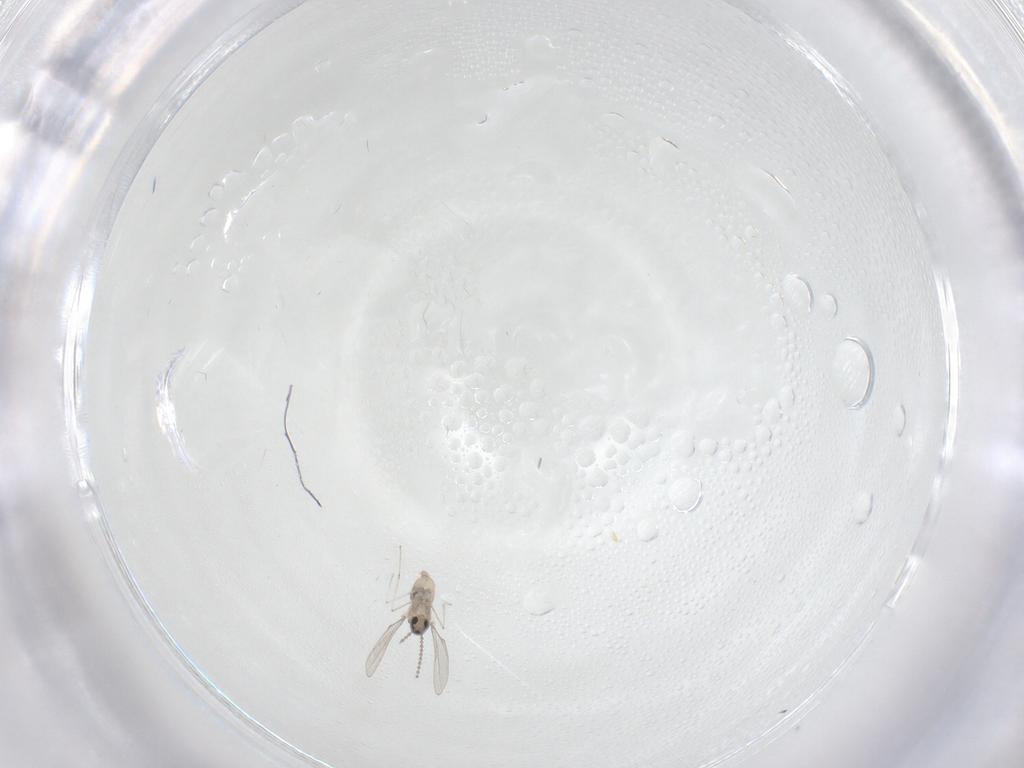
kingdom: Animalia
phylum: Arthropoda
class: Insecta
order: Diptera
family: Cecidomyiidae
